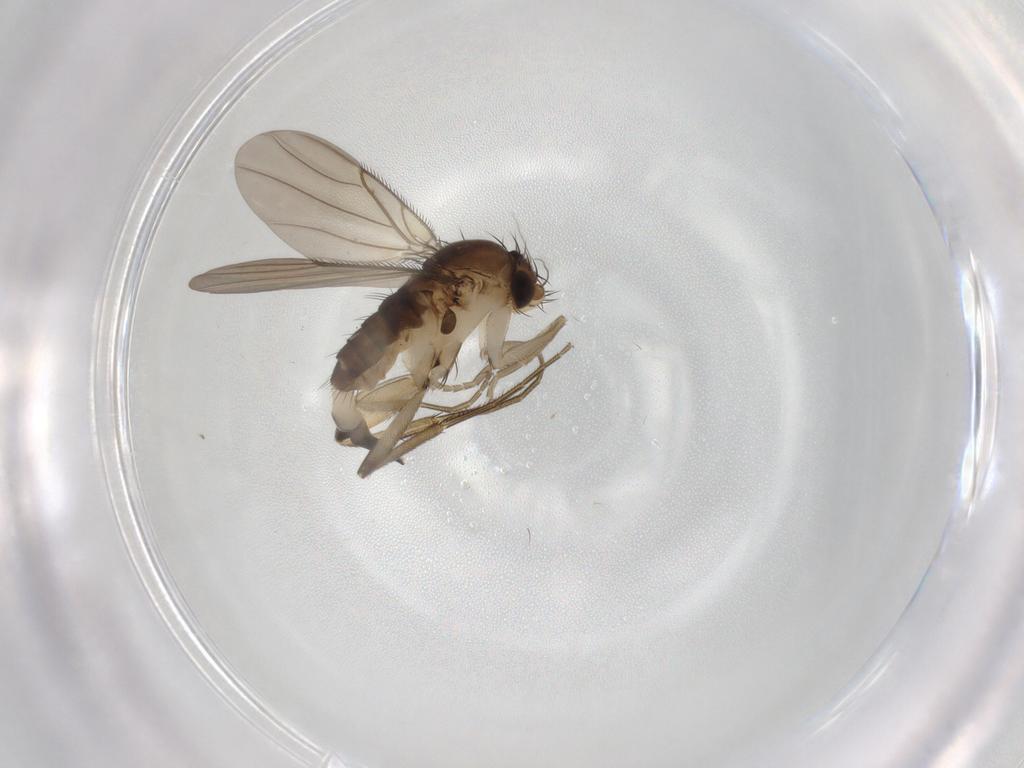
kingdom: Animalia
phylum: Arthropoda
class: Insecta
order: Diptera
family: Phoridae
